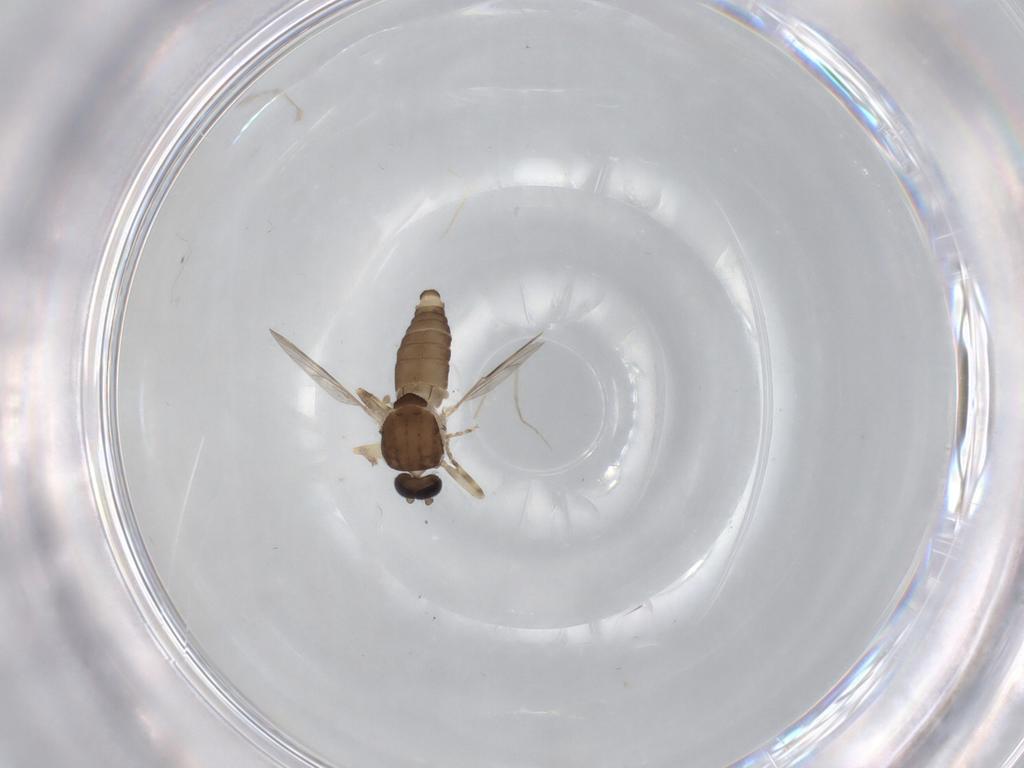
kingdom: Animalia
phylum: Arthropoda
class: Insecta
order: Diptera
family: Ceratopogonidae
